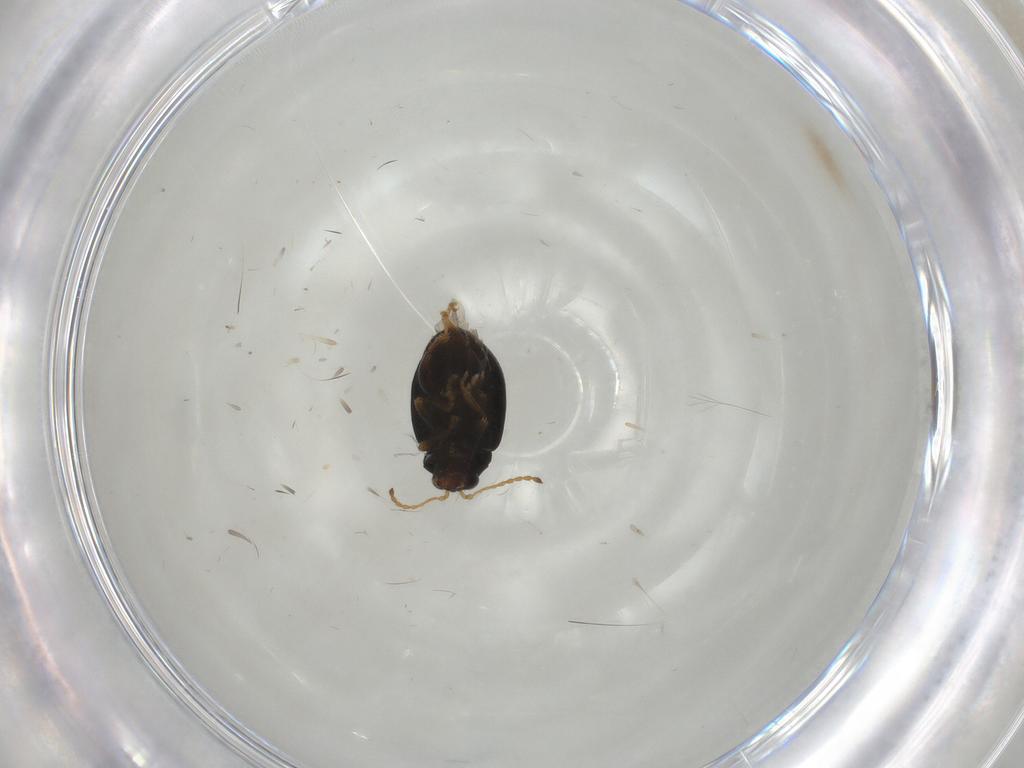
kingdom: Animalia
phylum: Arthropoda
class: Insecta
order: Coleoptera
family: Chrysomelidae
